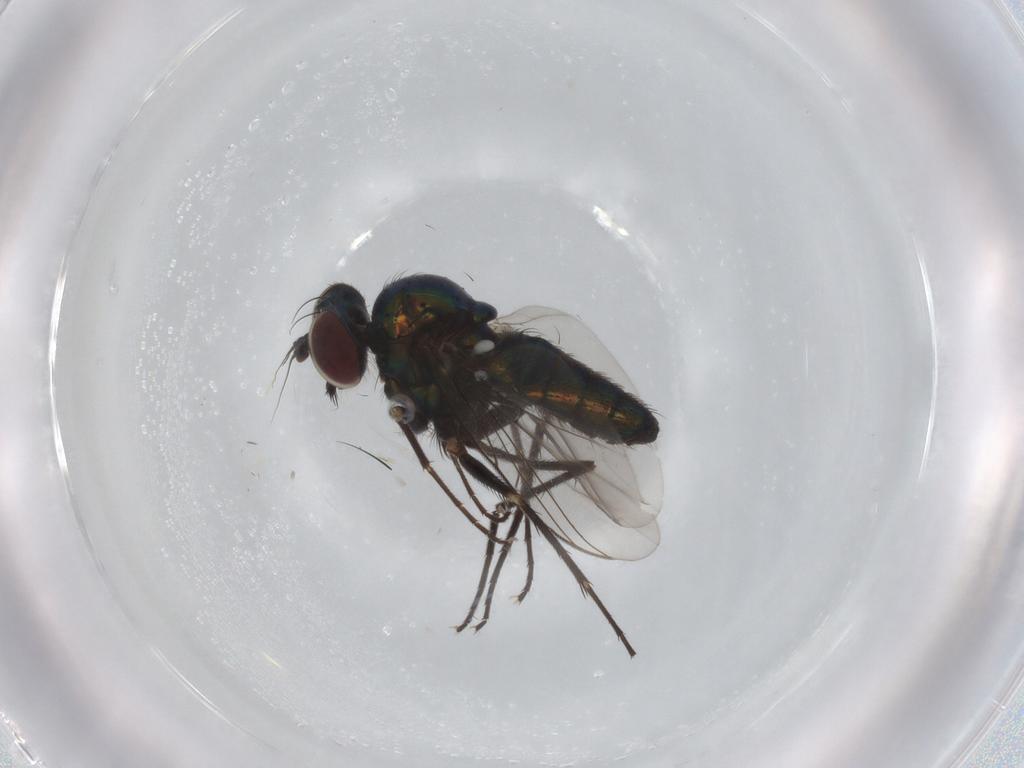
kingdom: Animalia
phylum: Arthropoda
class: Insecta
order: Diptera
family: Dolichopodidae
